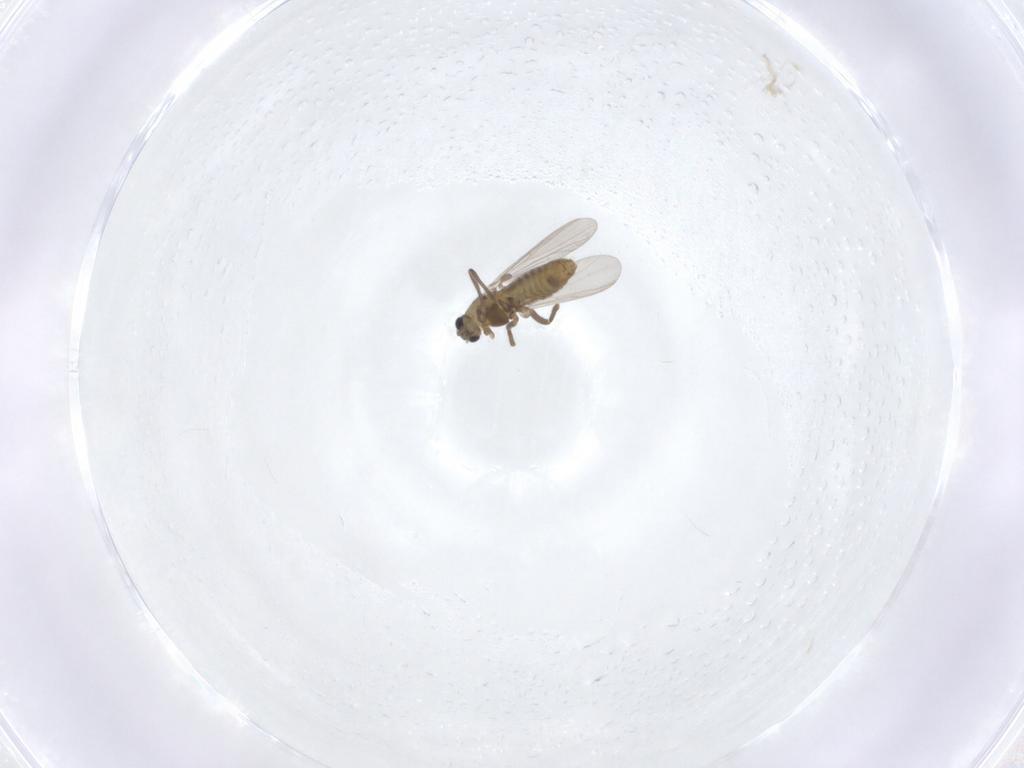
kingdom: Animalia
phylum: Arthropoda
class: Insecta
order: Diptera
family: Chironomidae
